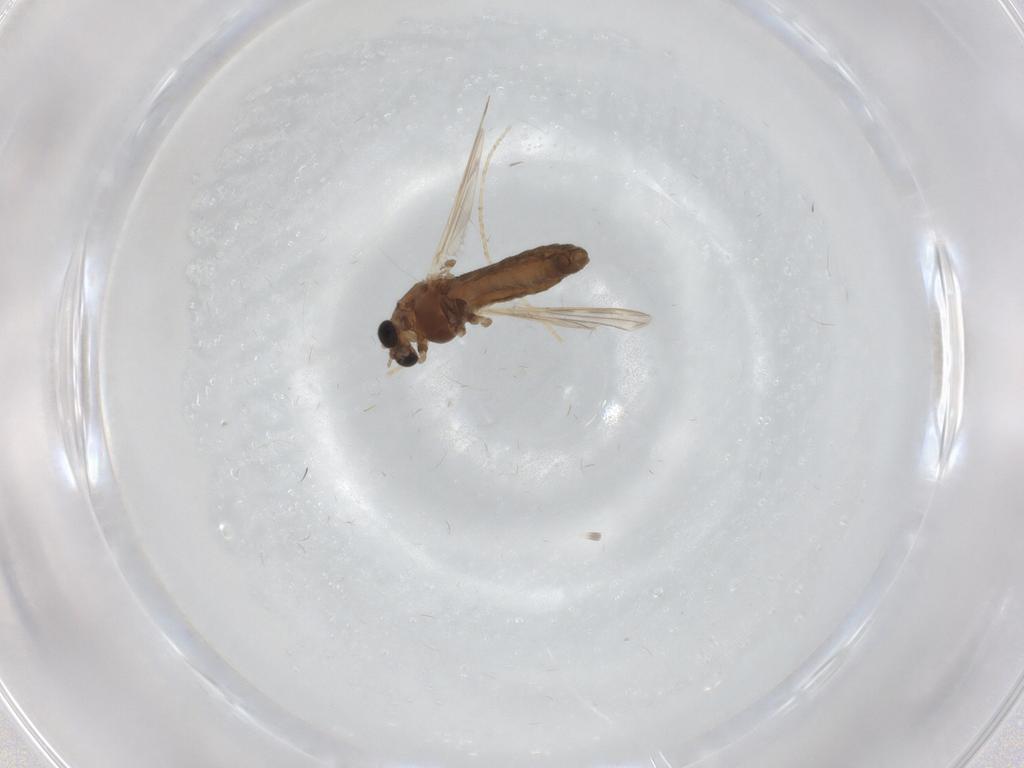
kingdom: Animalia
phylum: Arthropoda
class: Insecta
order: Diptera
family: Chironomidae
